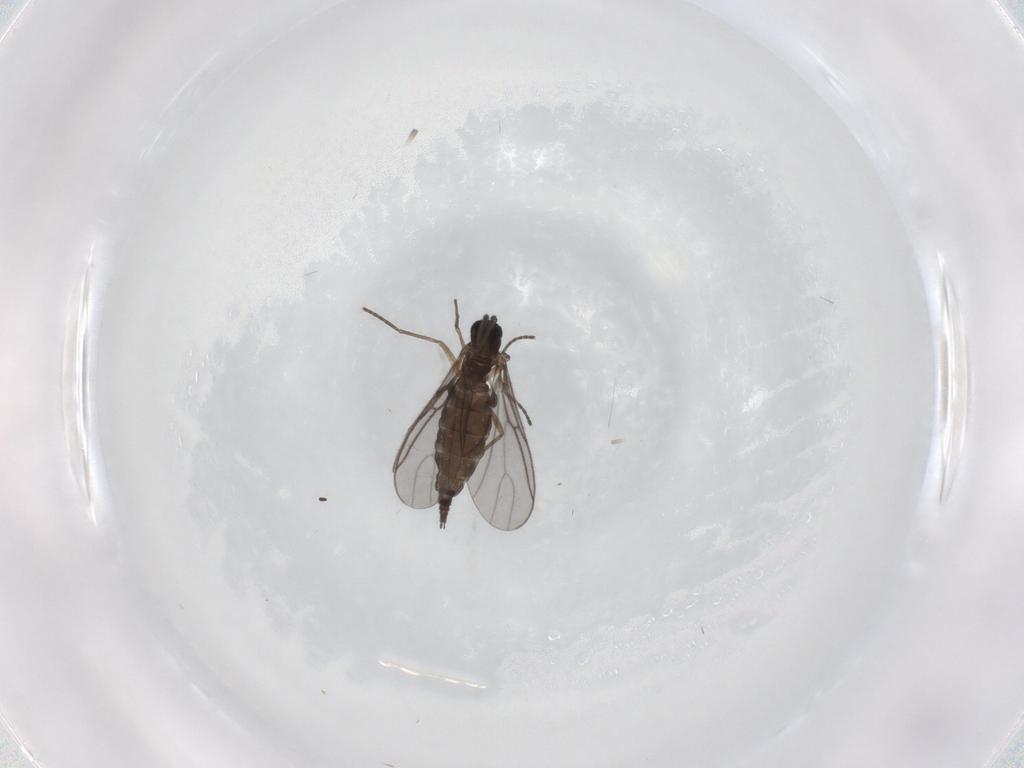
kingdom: Animalia
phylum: Arthropoda
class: Insecta
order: Diptera
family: Sciaridae
